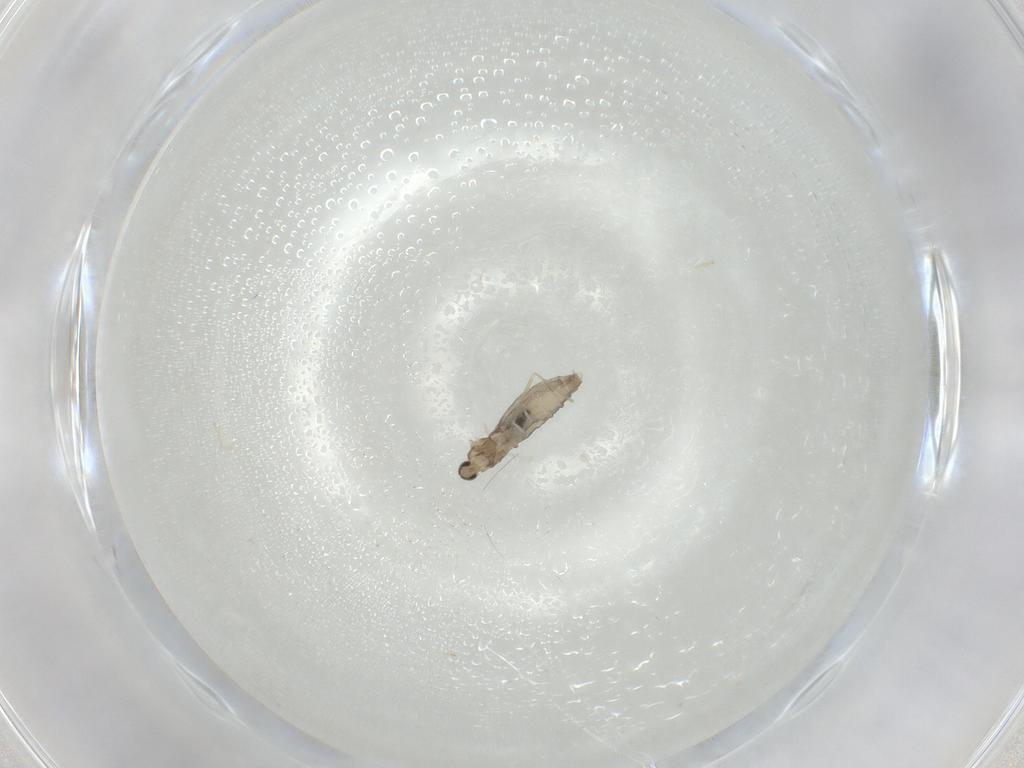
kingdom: Animalia
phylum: Arthropoda
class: Insecta
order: Diptera
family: Cecidomyiidae
